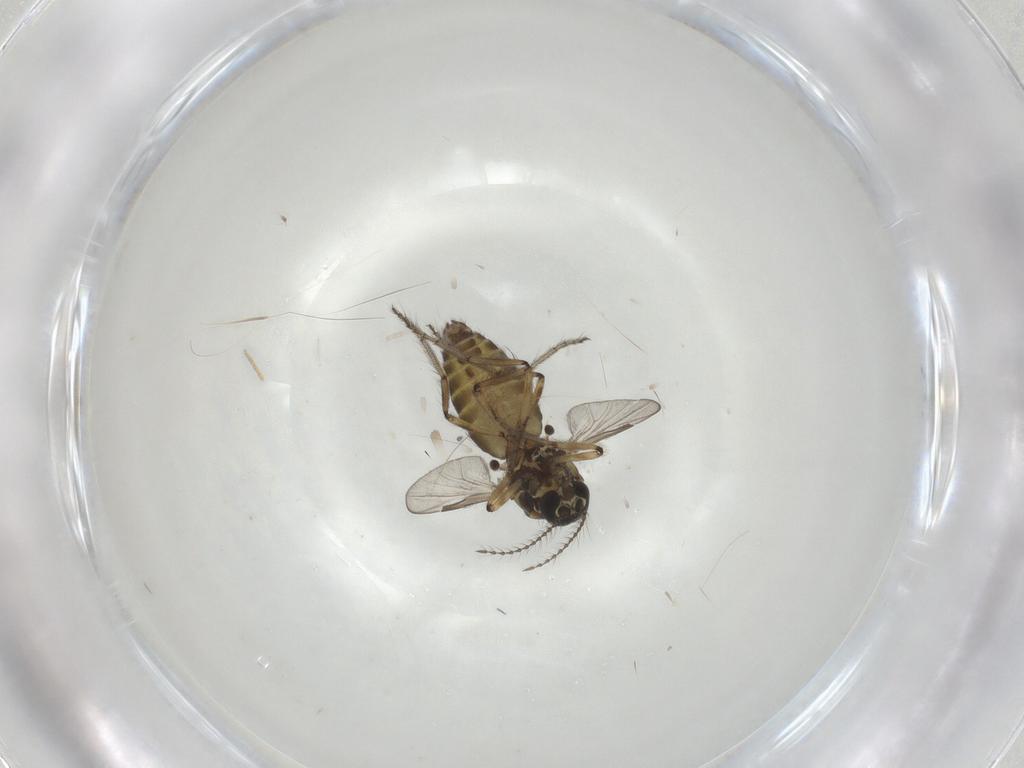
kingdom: Animalia
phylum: Arthropoda
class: Insecta
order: Diptera
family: Ceratopogonidae
